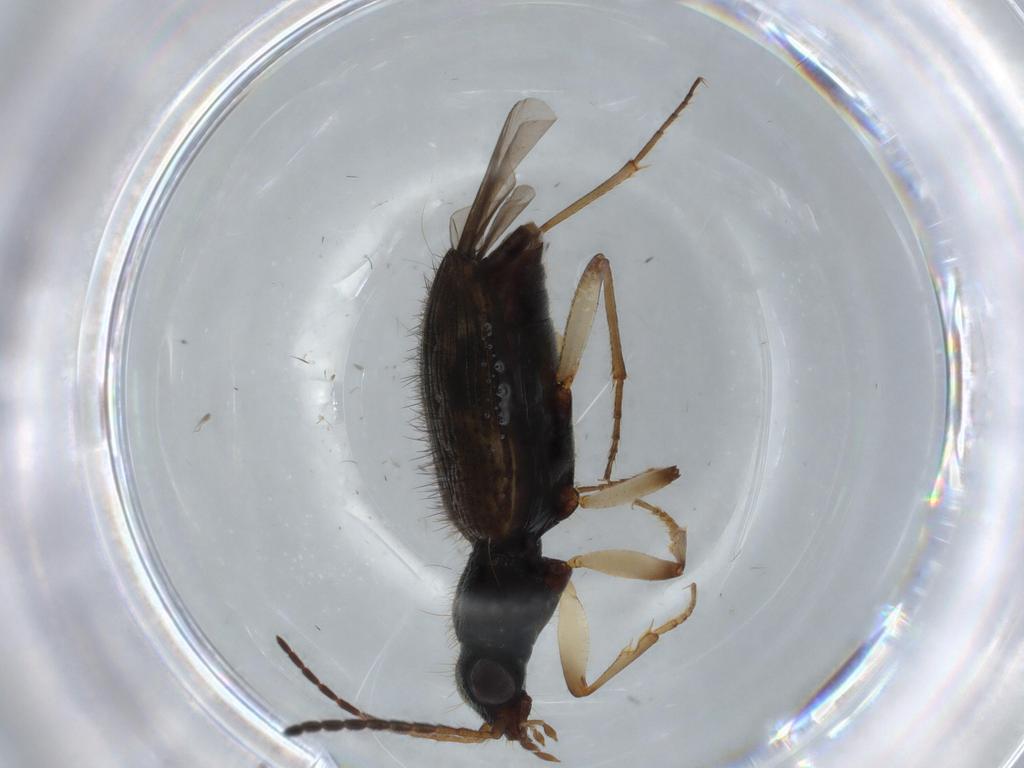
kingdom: Animalia
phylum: Arthropoda
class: Insecta
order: Coleoptera
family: Carabidae
